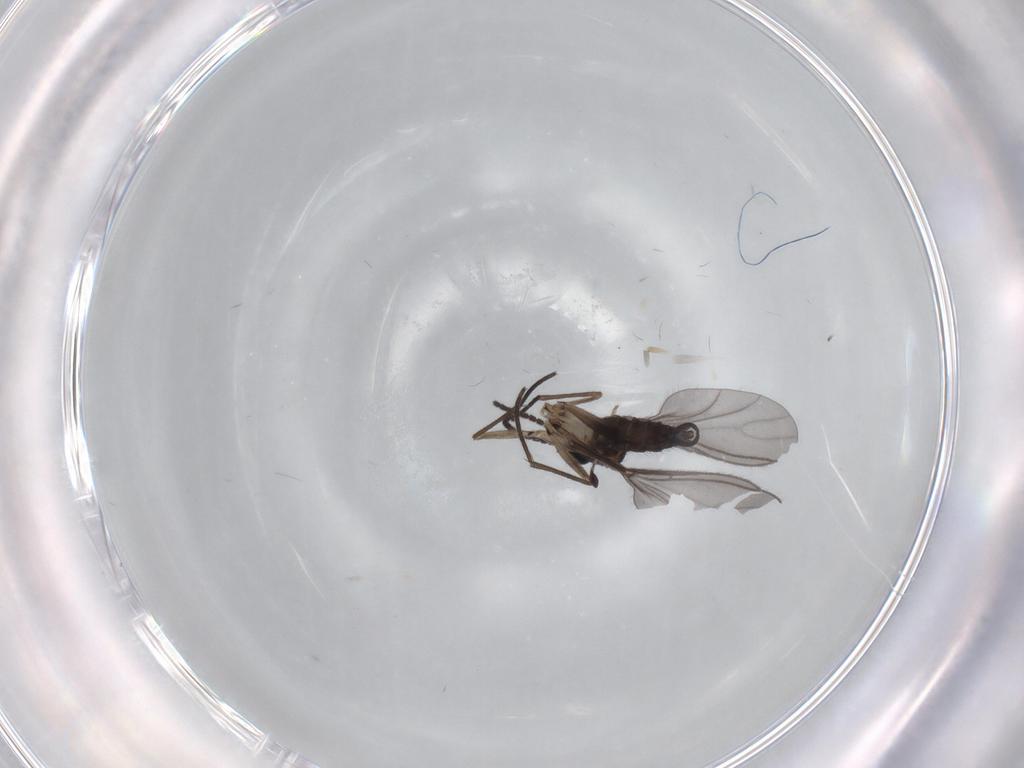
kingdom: Animalia
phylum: Arthropoda
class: Insecta
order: Diptera
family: Sciaridae
